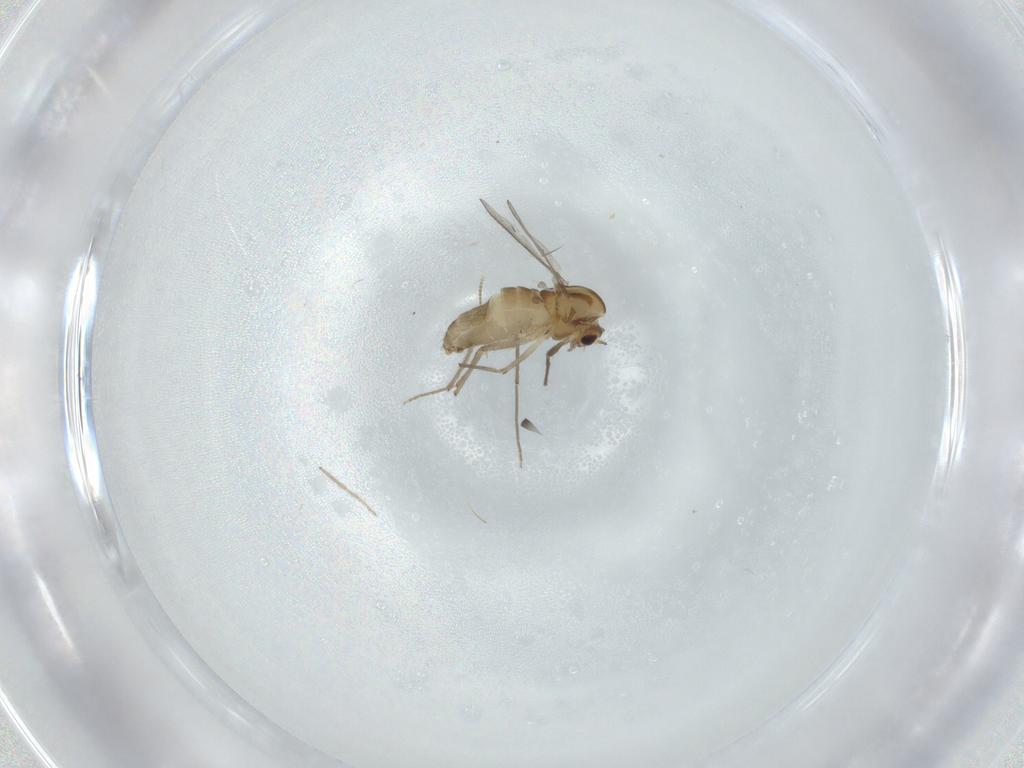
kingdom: Animalia
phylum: Arthropoda
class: Insecta
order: Diptera
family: Chironomidae
